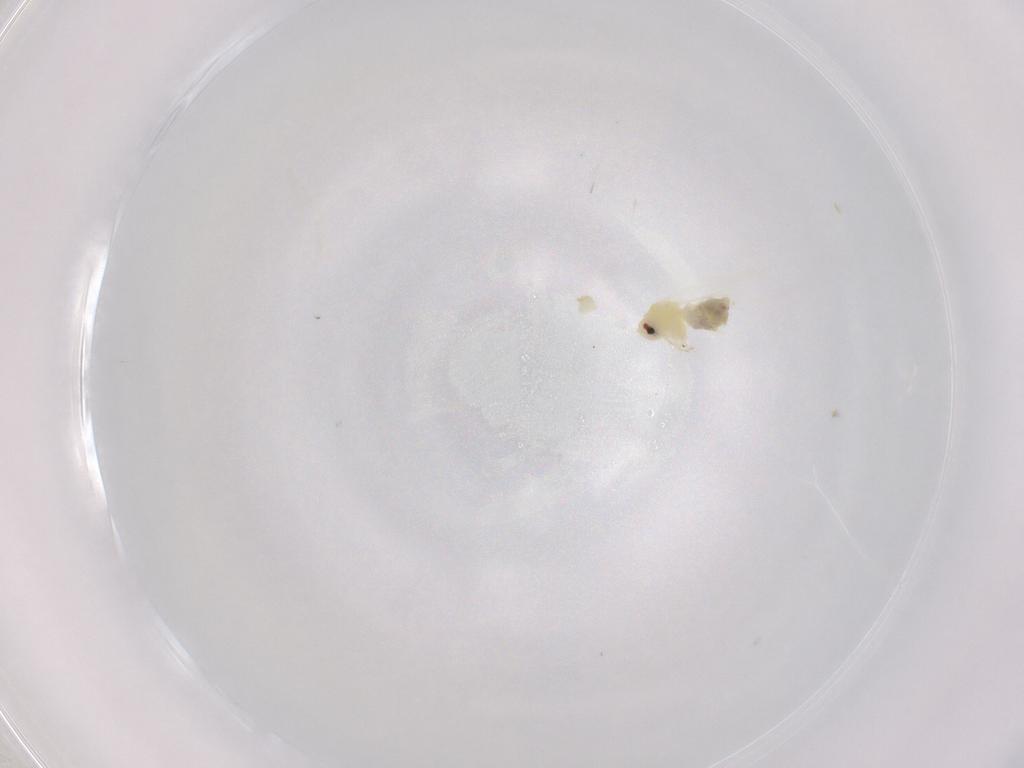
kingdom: Animalia
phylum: Arthropoda
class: Insecta
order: Hemiptera
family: Aleyrodidae
